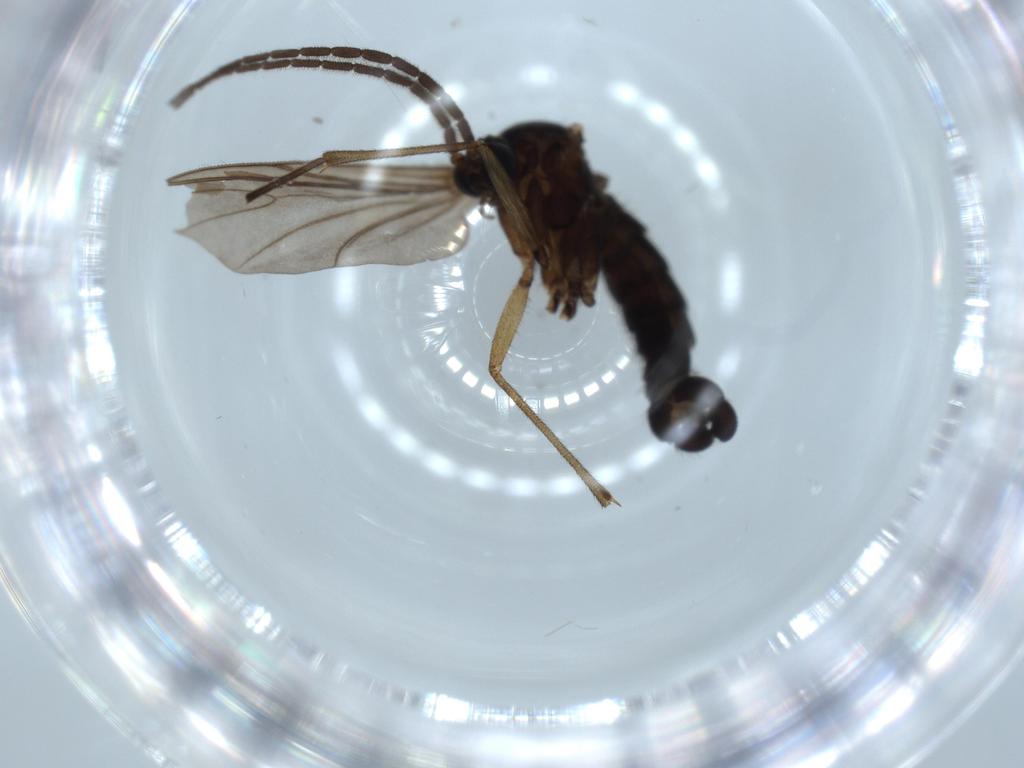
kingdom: Animalia
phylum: Arthropoda
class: Insecta
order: Diptera
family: Sciaridae
